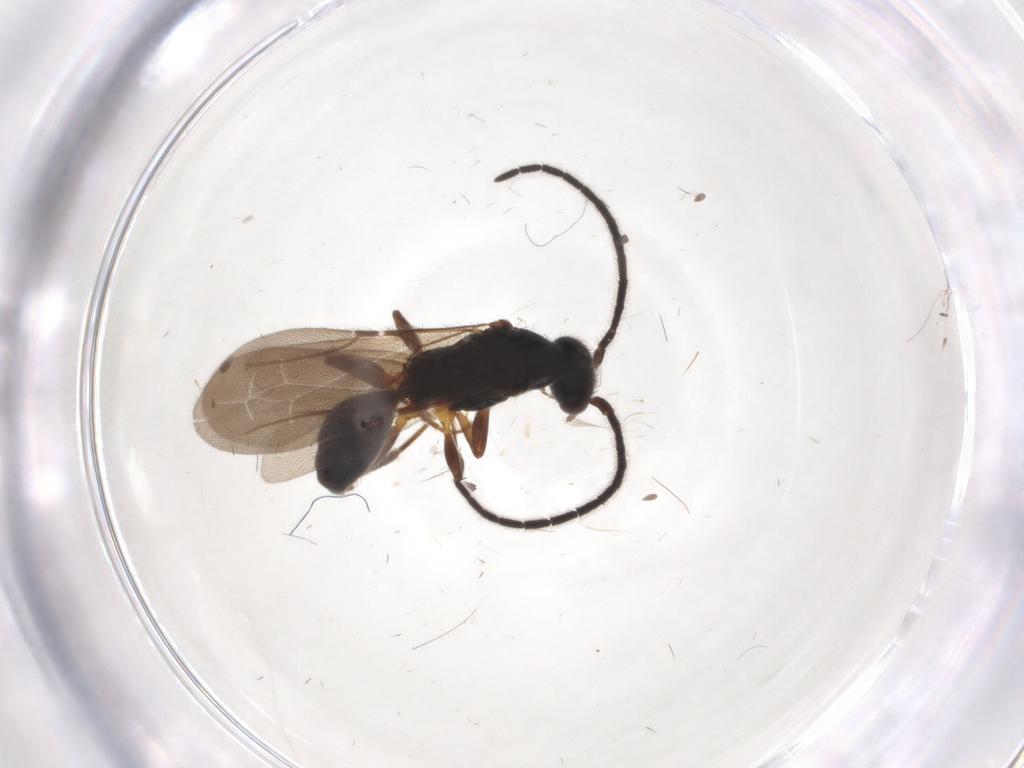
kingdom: Animalia
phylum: Arthropoda
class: Insecta
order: Hymenoptera
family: Bethylidae
